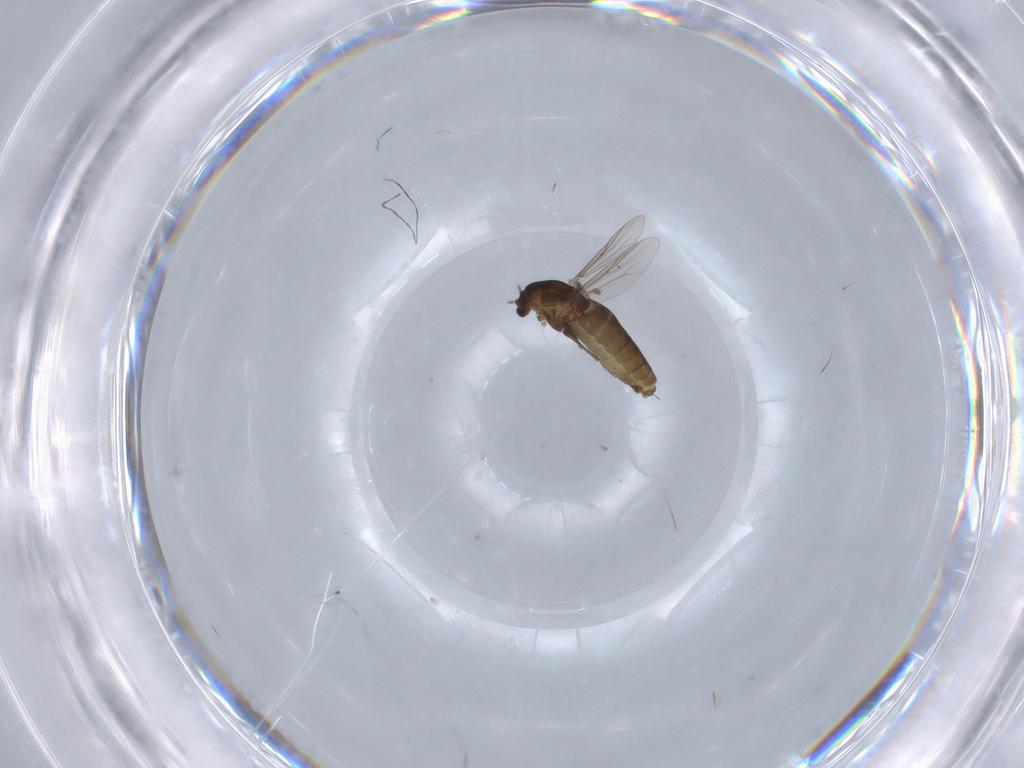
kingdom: Animalia
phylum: Arthropoda
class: Insecta
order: Diptera
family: Chironomidae
